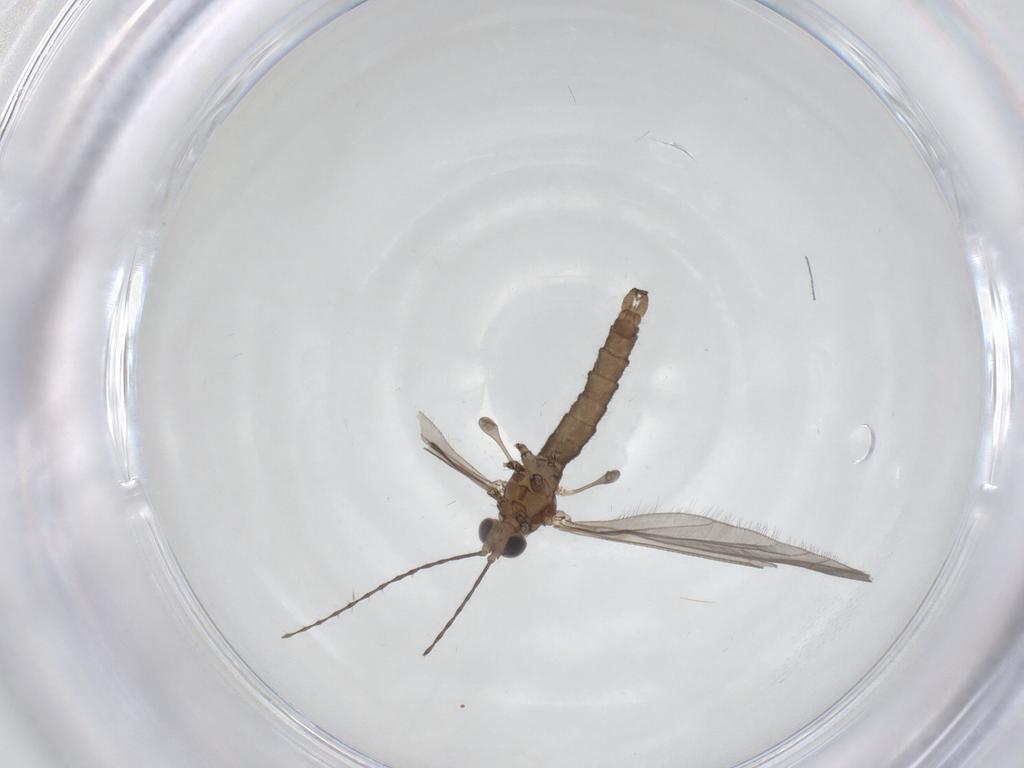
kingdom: Animalia
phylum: Arthropoda
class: Insecta
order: Diptera
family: Limoniidae
